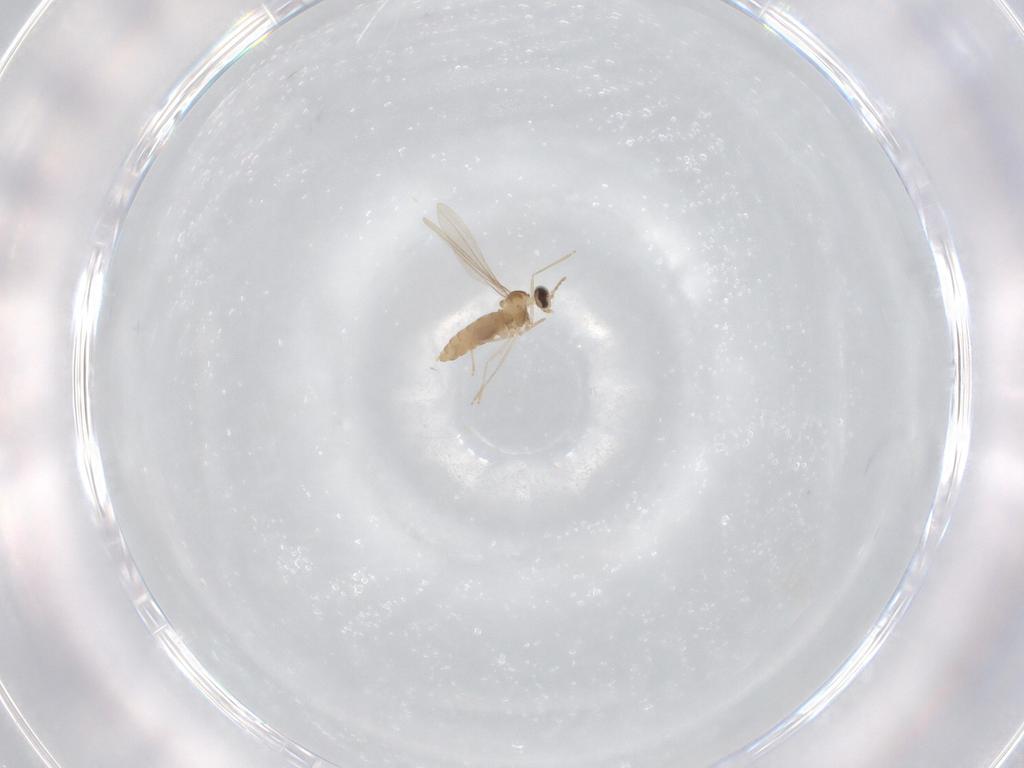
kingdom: Animalia
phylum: Arthropoda
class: Insecta
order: Diptera
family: Cecidomyiidae
